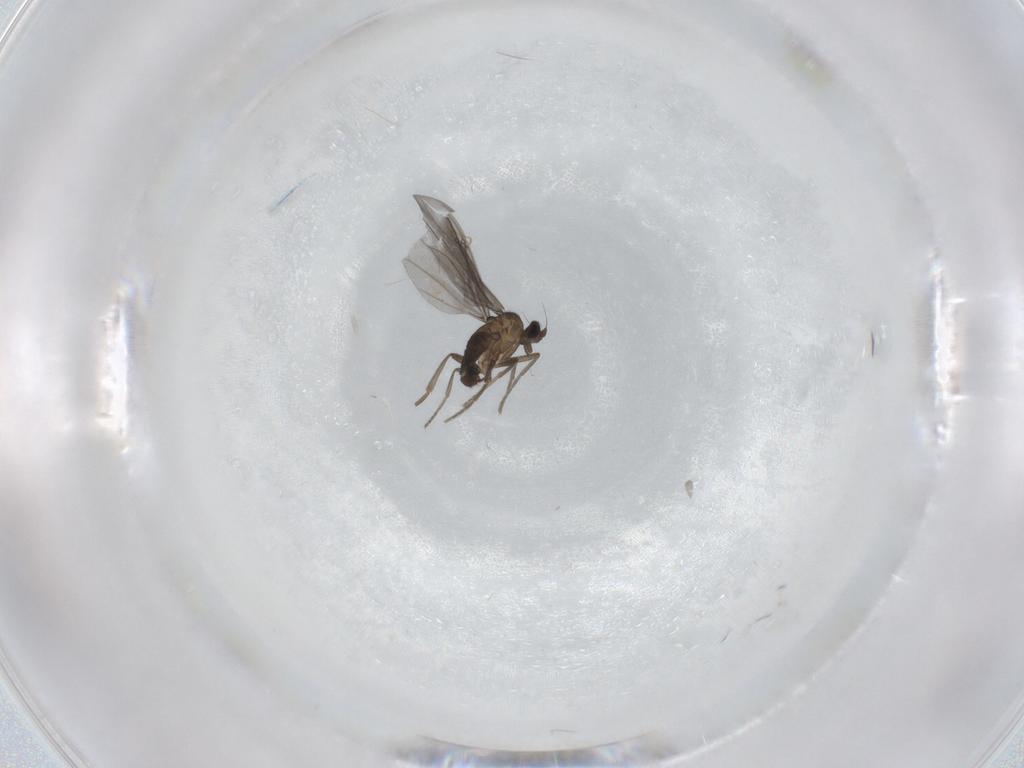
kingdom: Animalia
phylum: Arthropoda
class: Insecta
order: Diptera
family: Phoridae
